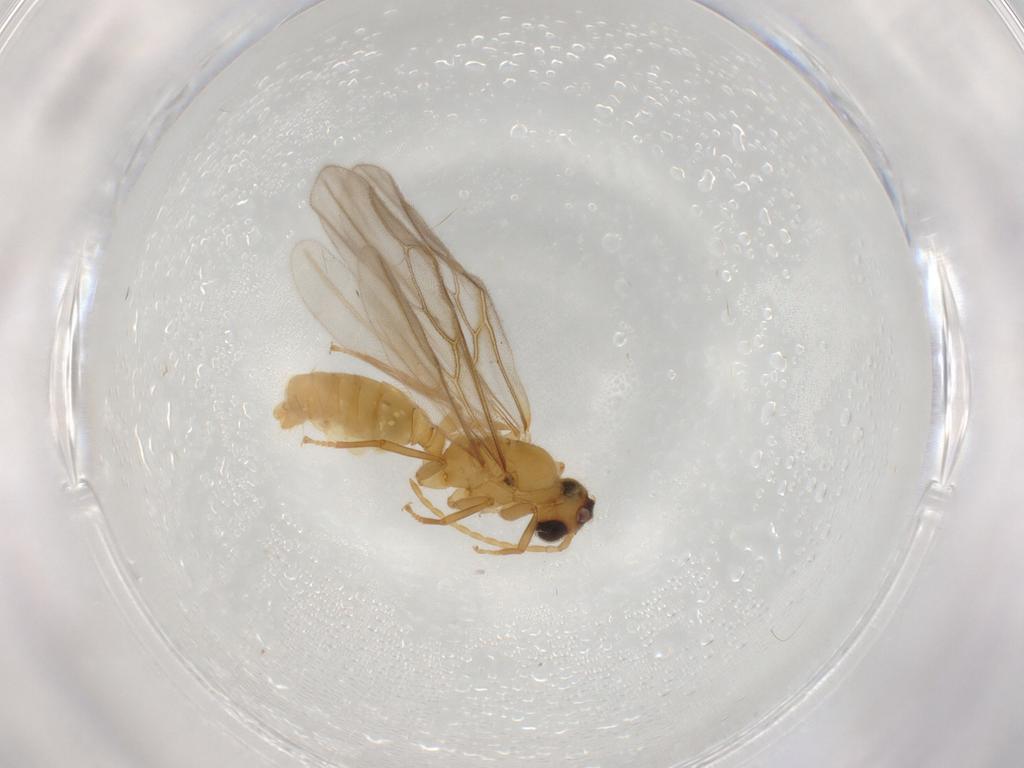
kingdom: Animalia
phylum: Arthropoda
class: Insecta
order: Hymenoptera
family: Formicidae
